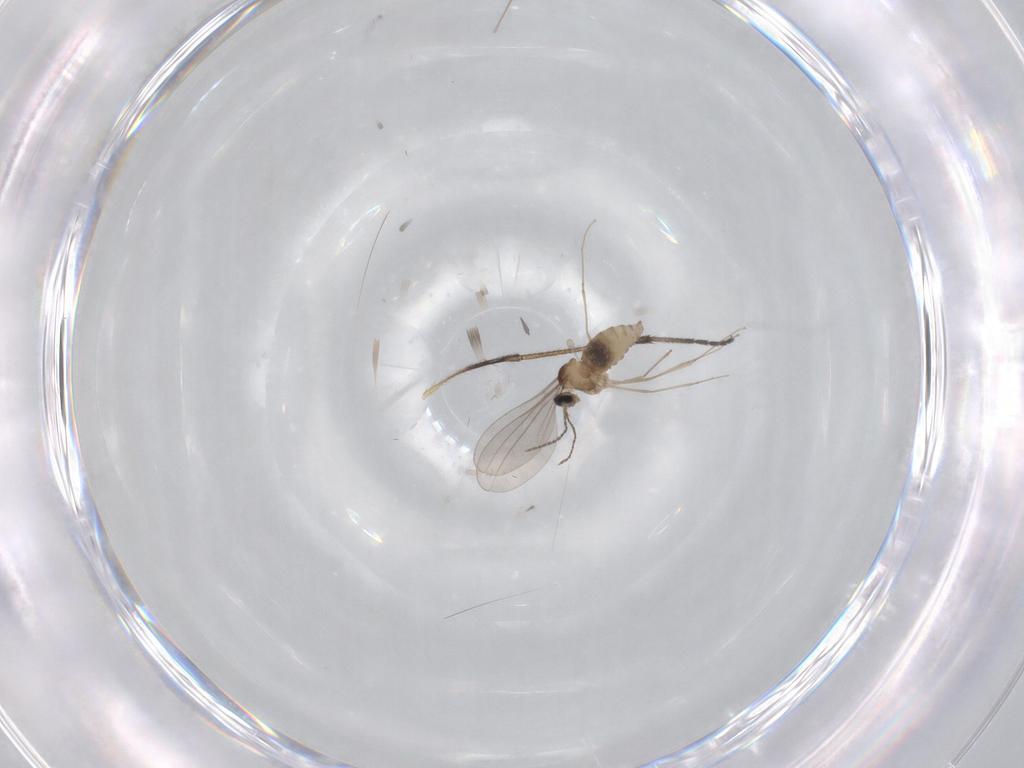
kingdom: Animalia
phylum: Arthropoda
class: Insecta
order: Diptera
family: Cecidomyiidae
